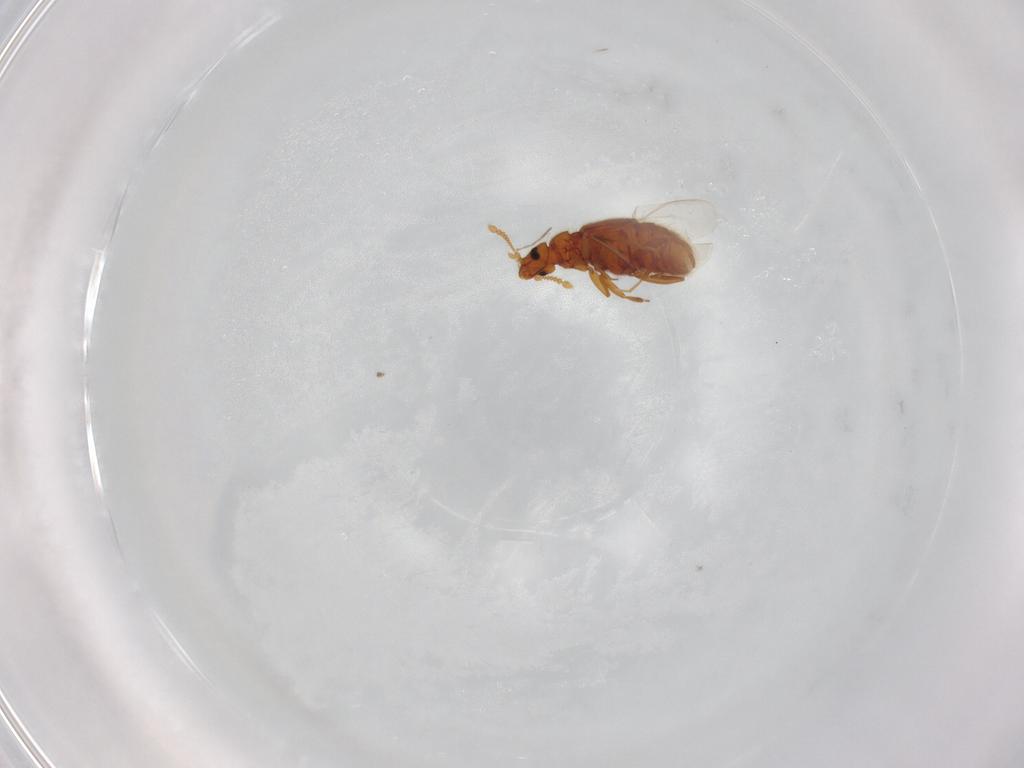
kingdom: Animalia
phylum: Arthropoda
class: Insecta
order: Coleoptera
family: Staphylinidae
